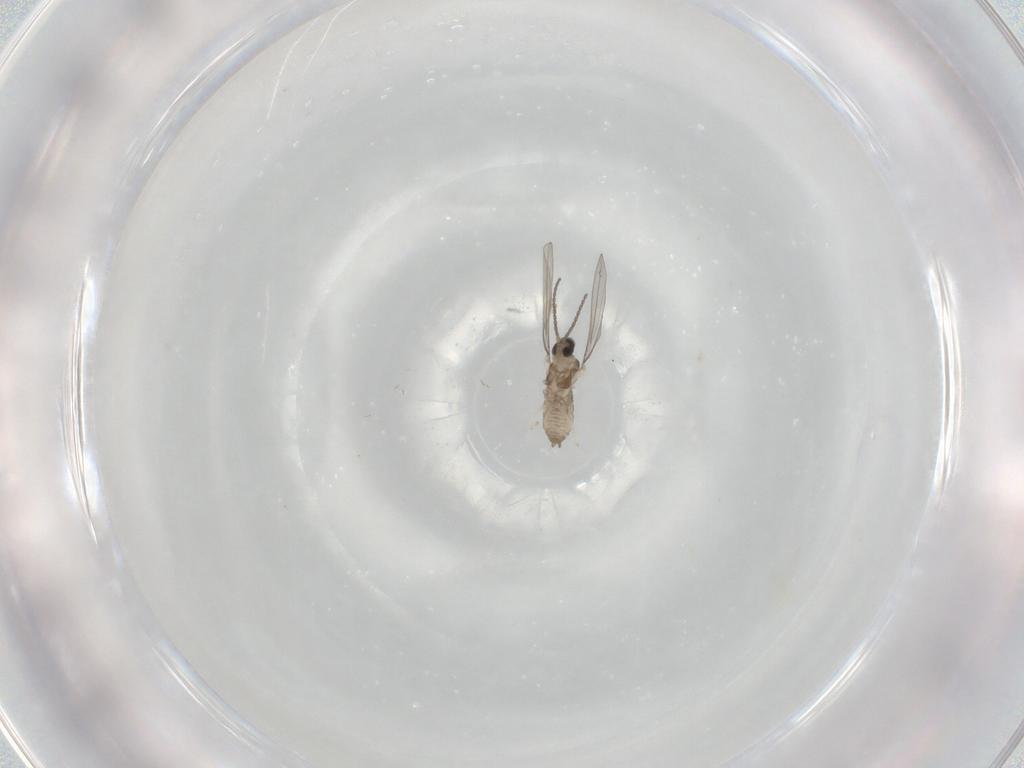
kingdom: Animalia
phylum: Arthropoda
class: Insecta
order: Diptera
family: Cecidomyiidae
